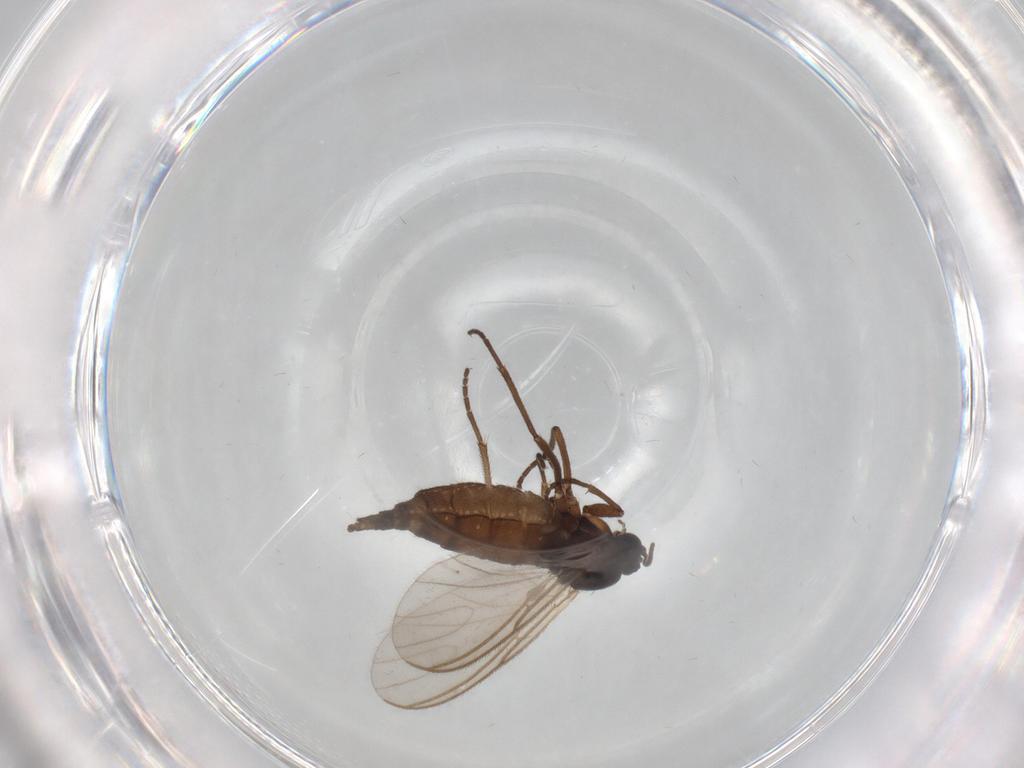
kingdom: Animalia
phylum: Arthropoda
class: Insecta
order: Diptera
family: Sciaridae
